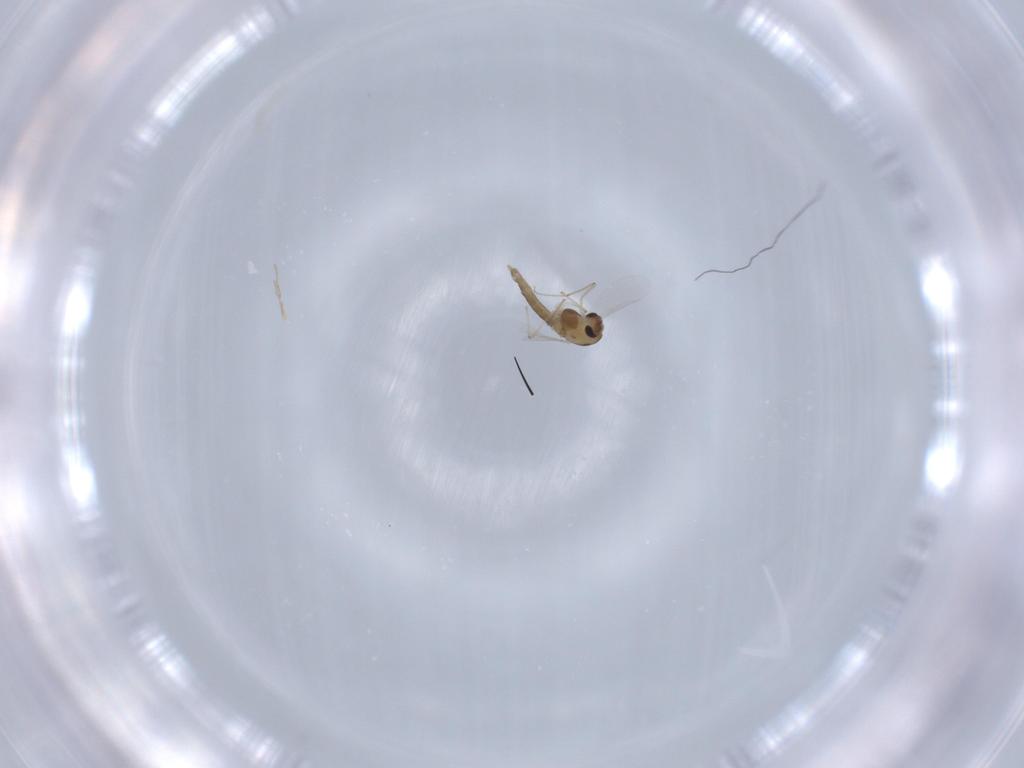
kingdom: Animalia
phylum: Arthropoda
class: Insecta
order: Diptera
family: Chironomidae
